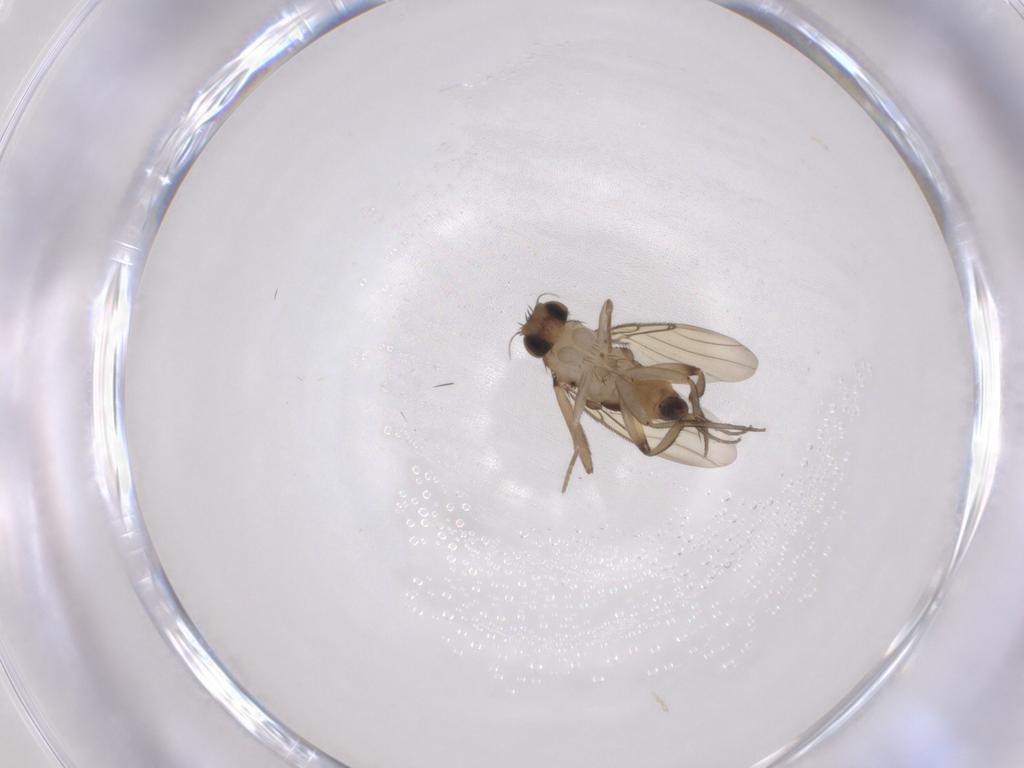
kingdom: Animalia
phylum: Arthropoda
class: Insecta
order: Diptera
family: Phoridae
